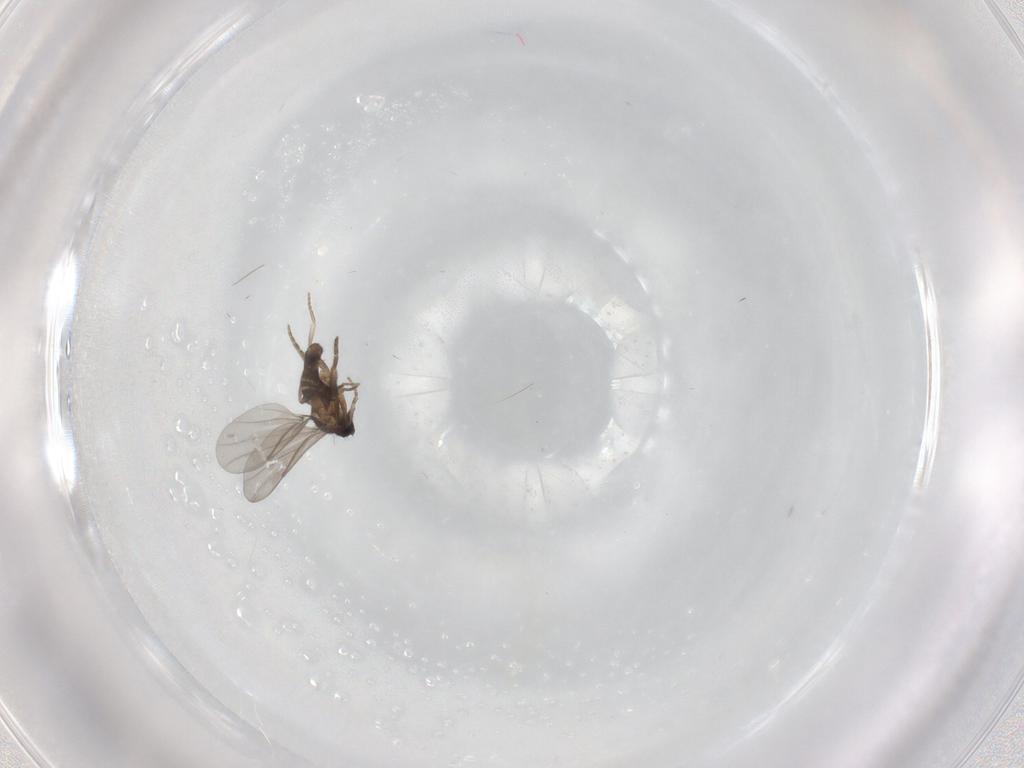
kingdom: Animalia
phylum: Arthropoda
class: Insecta
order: Diptera
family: Phoridae
